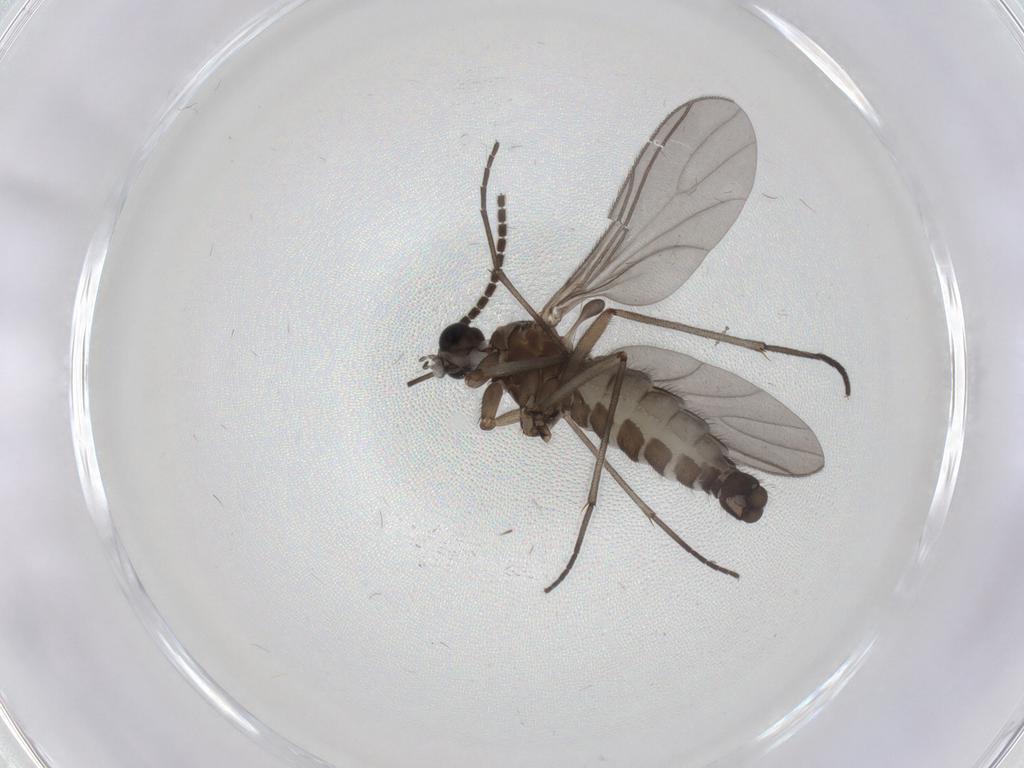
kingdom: Animalia
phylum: Arthropoda
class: Insecta
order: Diptera
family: Sciaridae
